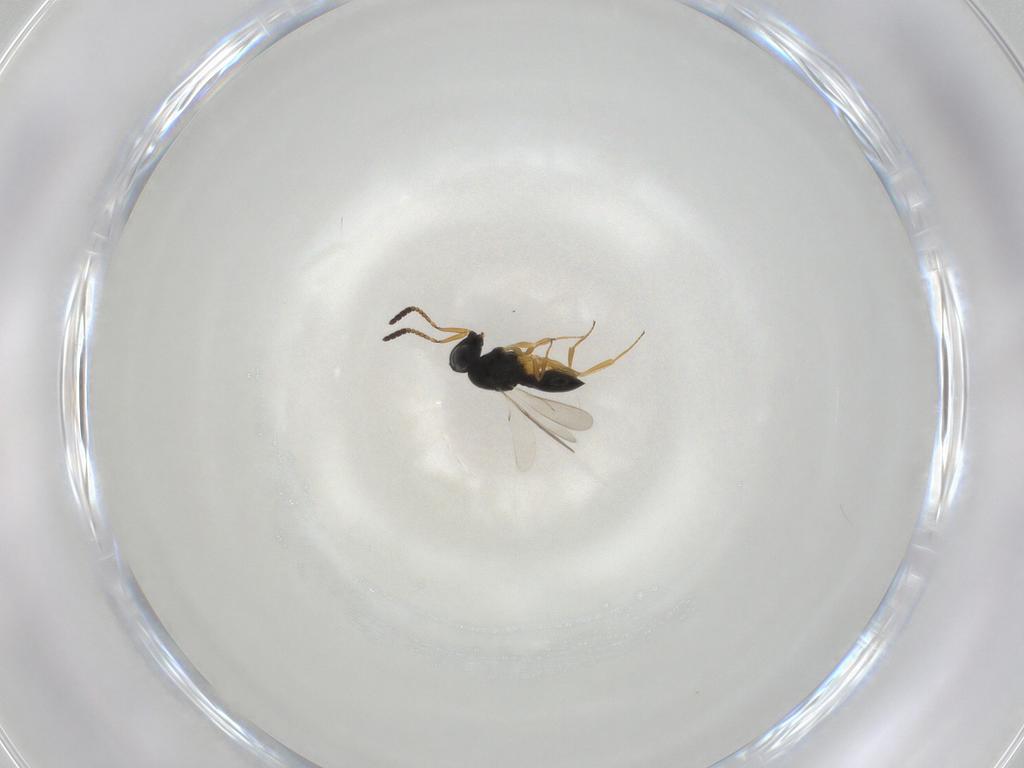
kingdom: Animalia
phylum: Arthropoda
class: Insecta
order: Hymenoptera
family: Scelionidae
